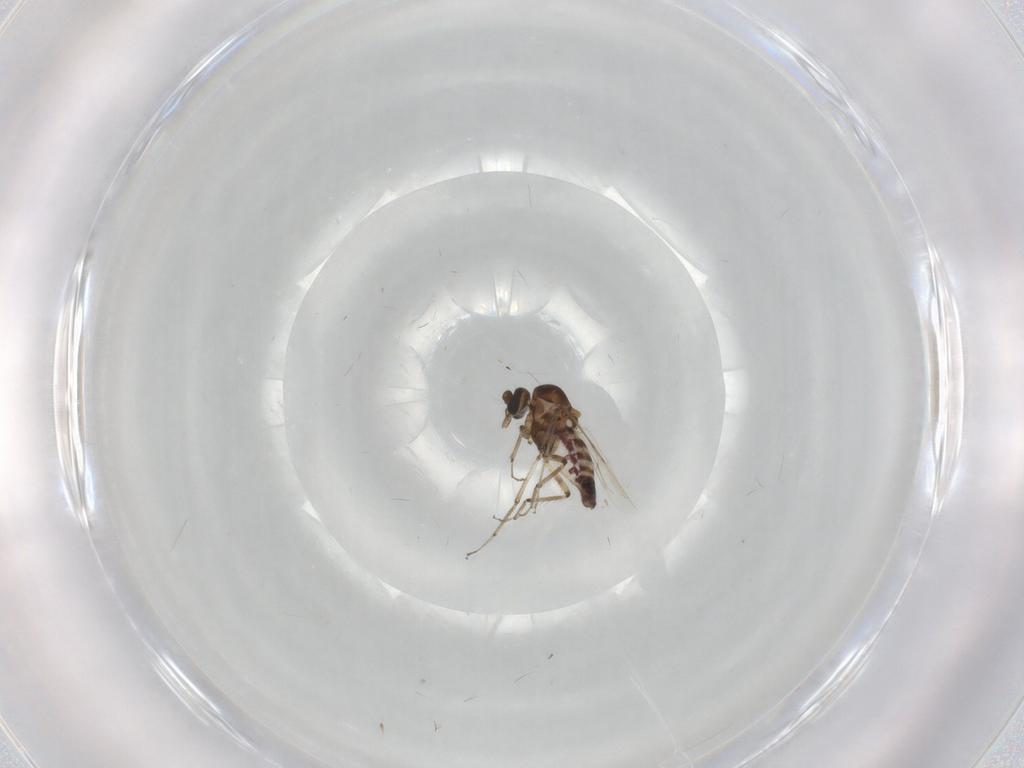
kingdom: Animalia
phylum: Arthropoda
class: Insecta
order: Diptera
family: Ceratopogonidae
